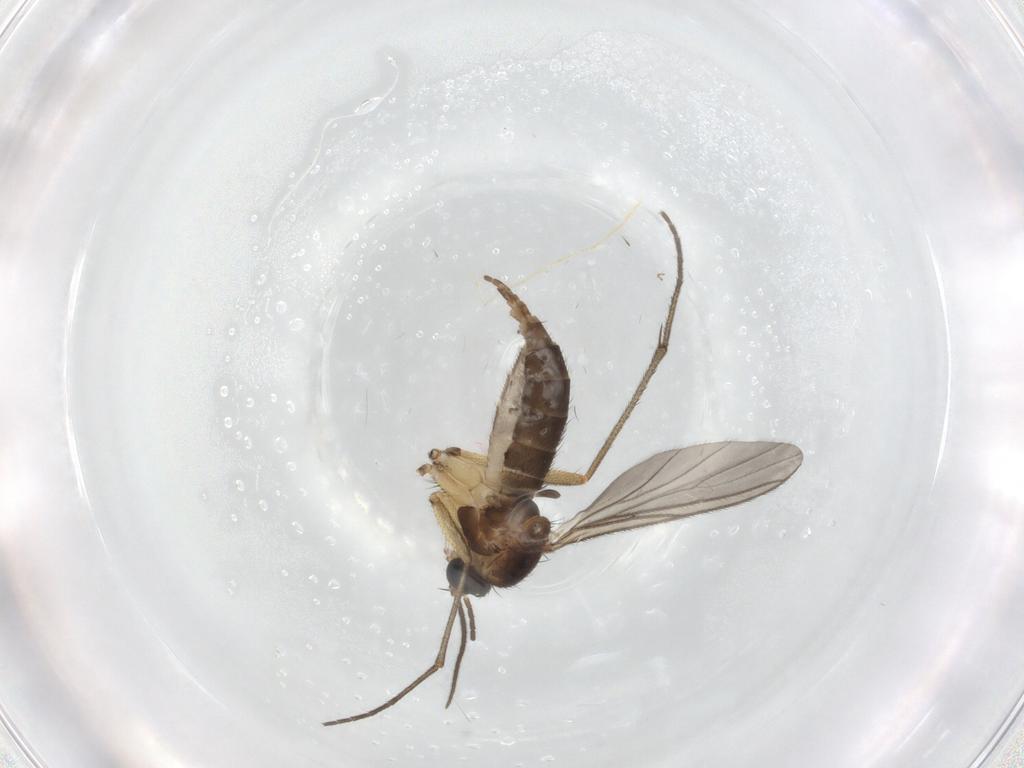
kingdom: Animalia
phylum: Arthropoda
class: Insecta
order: Diptera
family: Sciaridae
